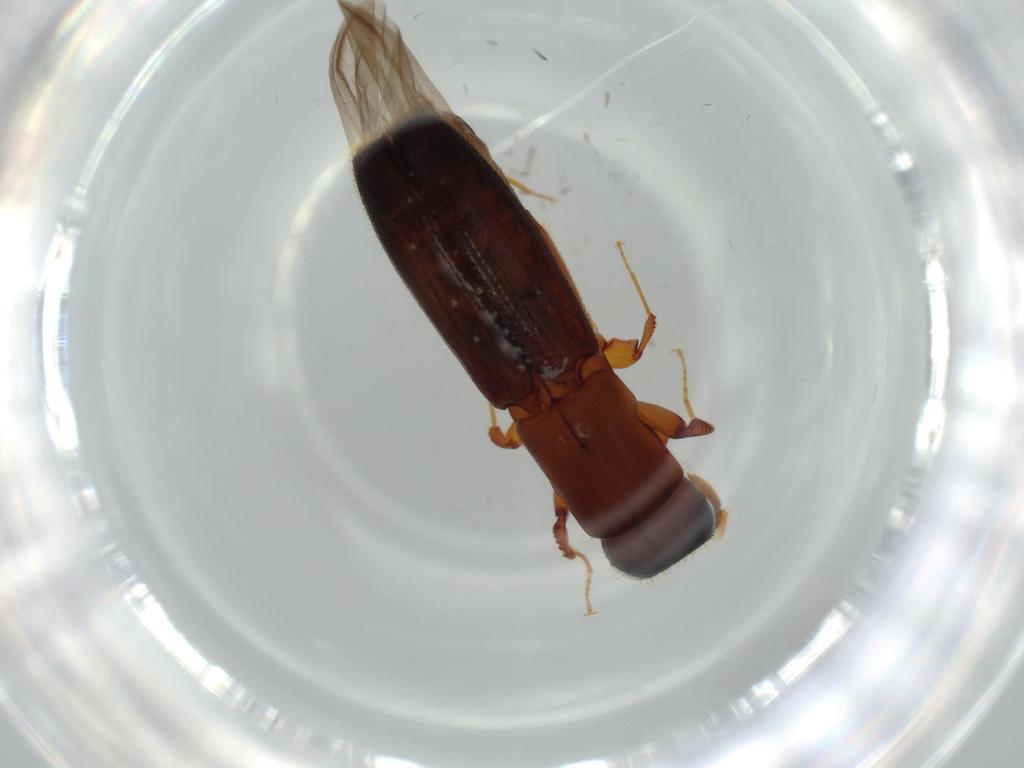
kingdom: Animalia
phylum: Arthropoda
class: Insecta
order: Coleoptera
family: Curculionidae
